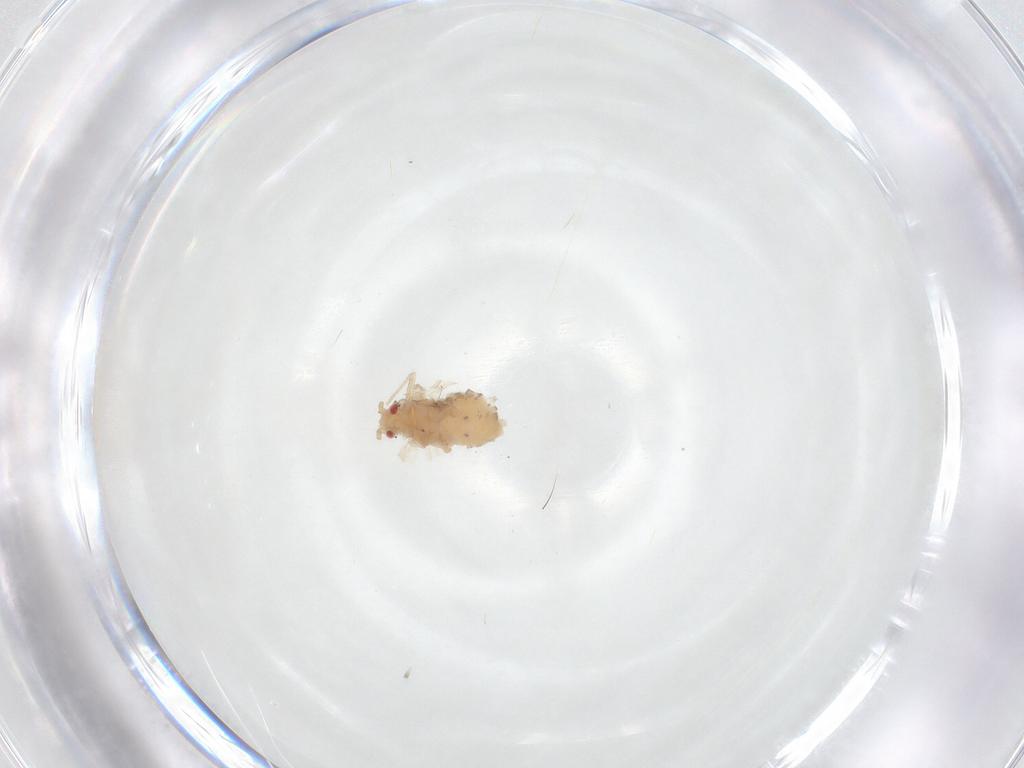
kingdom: Animalia
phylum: Arthropoda
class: Insecta
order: Hemiptera
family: Aphididae
